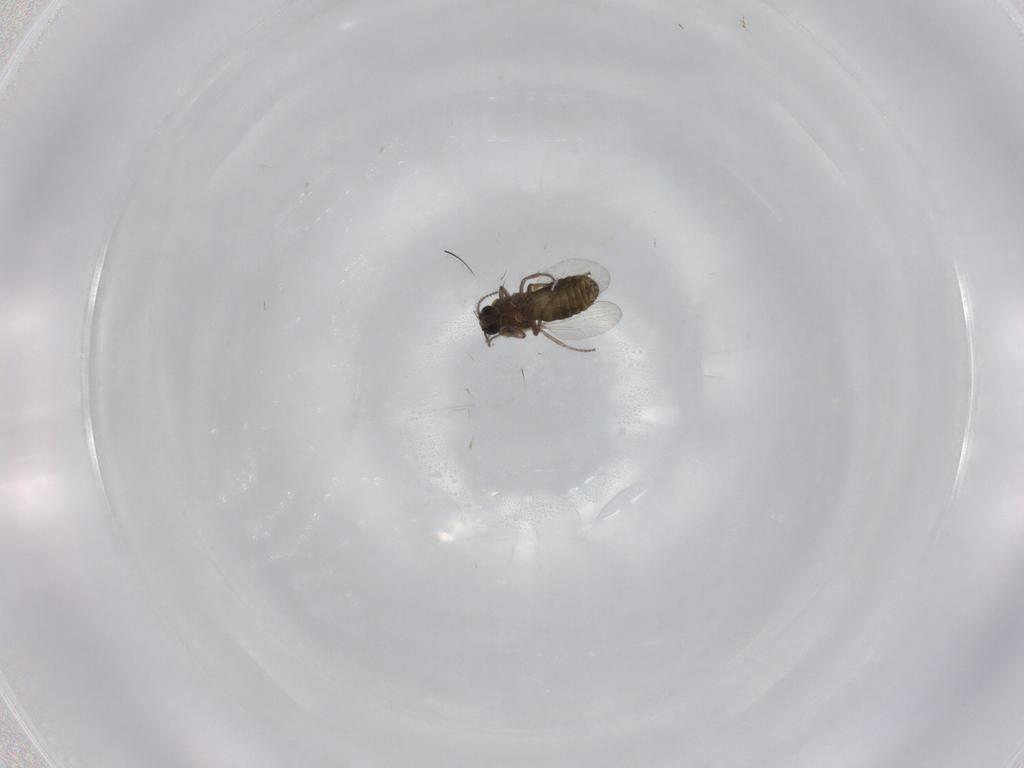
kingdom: Animalia
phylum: Arthropoda
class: Insecta
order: Diptera
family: Ceratopogonidae
